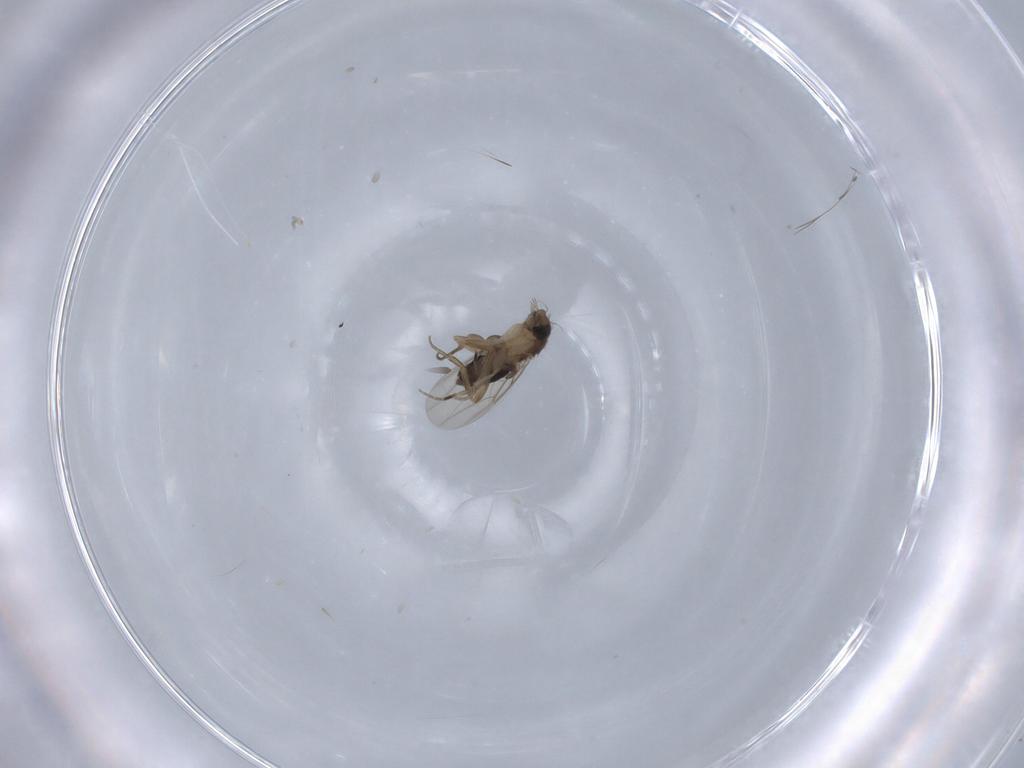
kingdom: Animalia
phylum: Arthropoda
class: Insecta
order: Diptera
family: Phoridae
